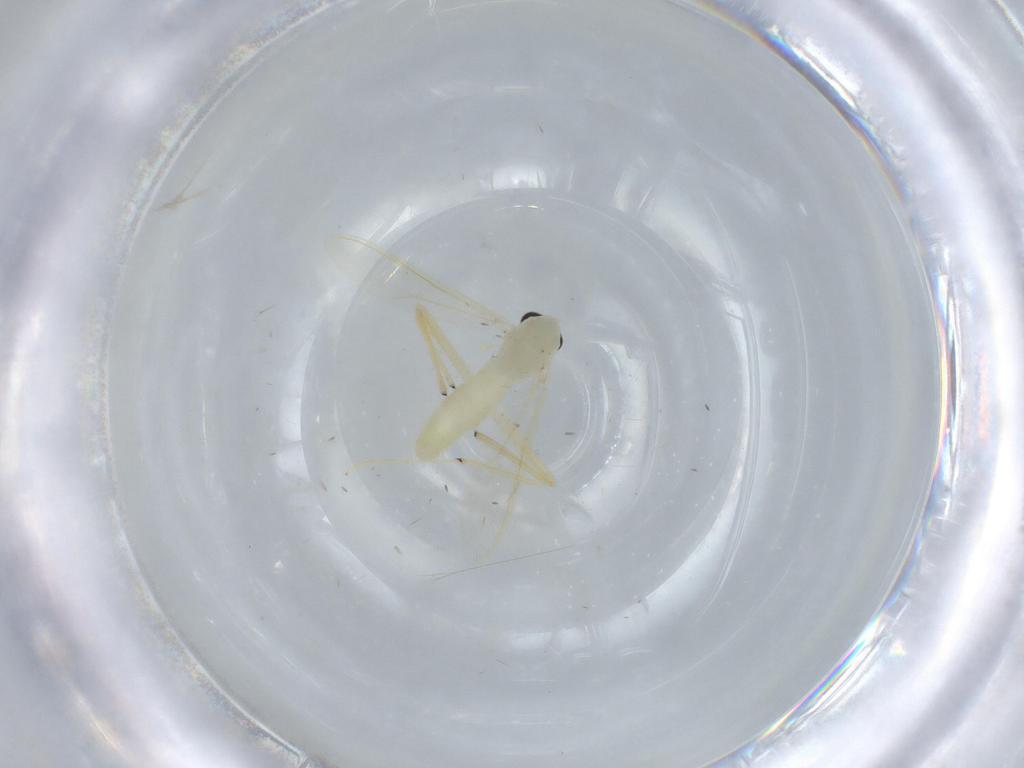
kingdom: Animalia
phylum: Arthropoda
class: Insecta
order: Diptera
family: Chironomidae
